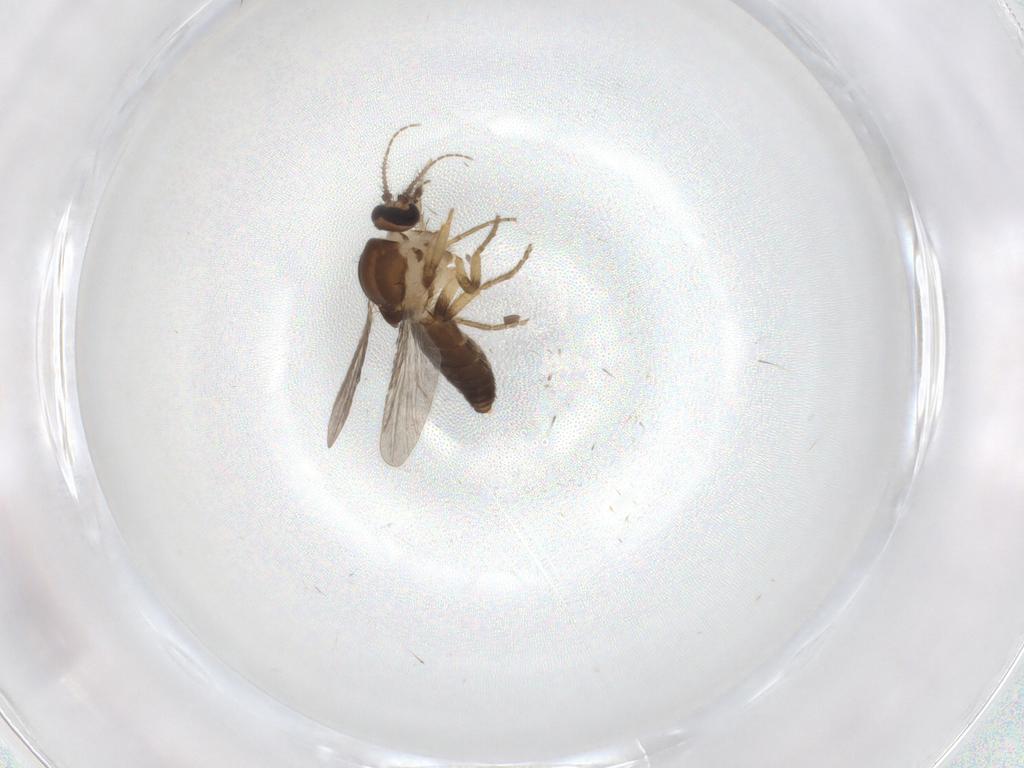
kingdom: Animalia
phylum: Arthropoda
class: Insecta
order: Diptera
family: Ceratopogonidae
